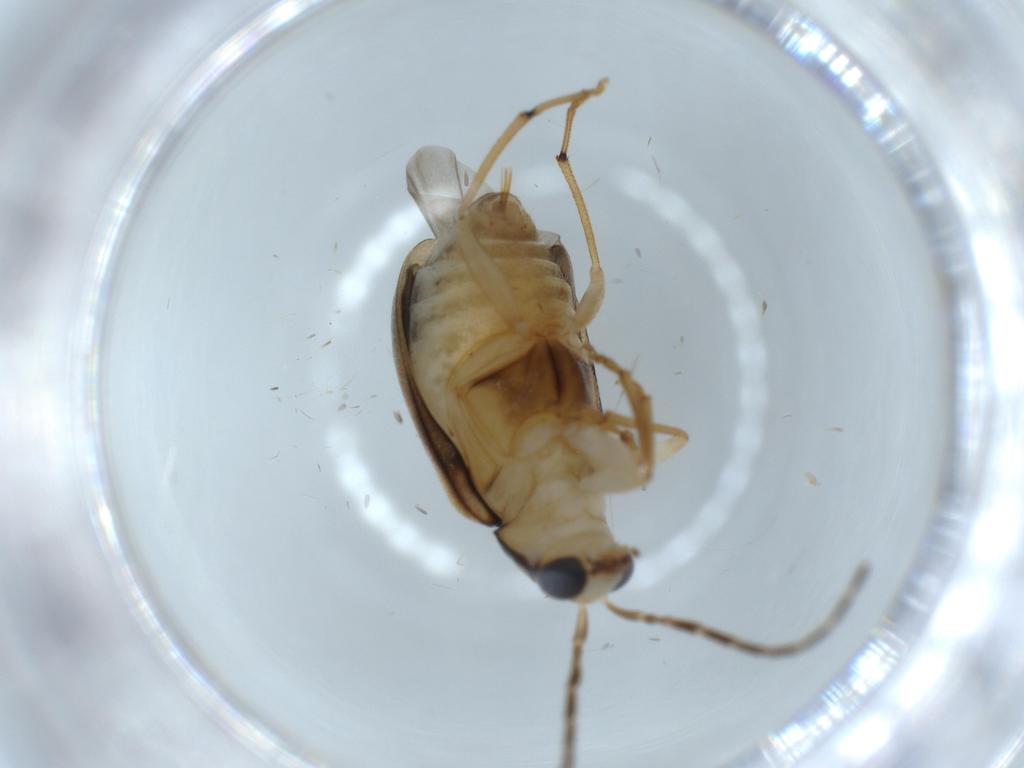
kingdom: Animalia
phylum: Arthropoda
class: Insecta
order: Coleoptera
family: Chrysomelidae
